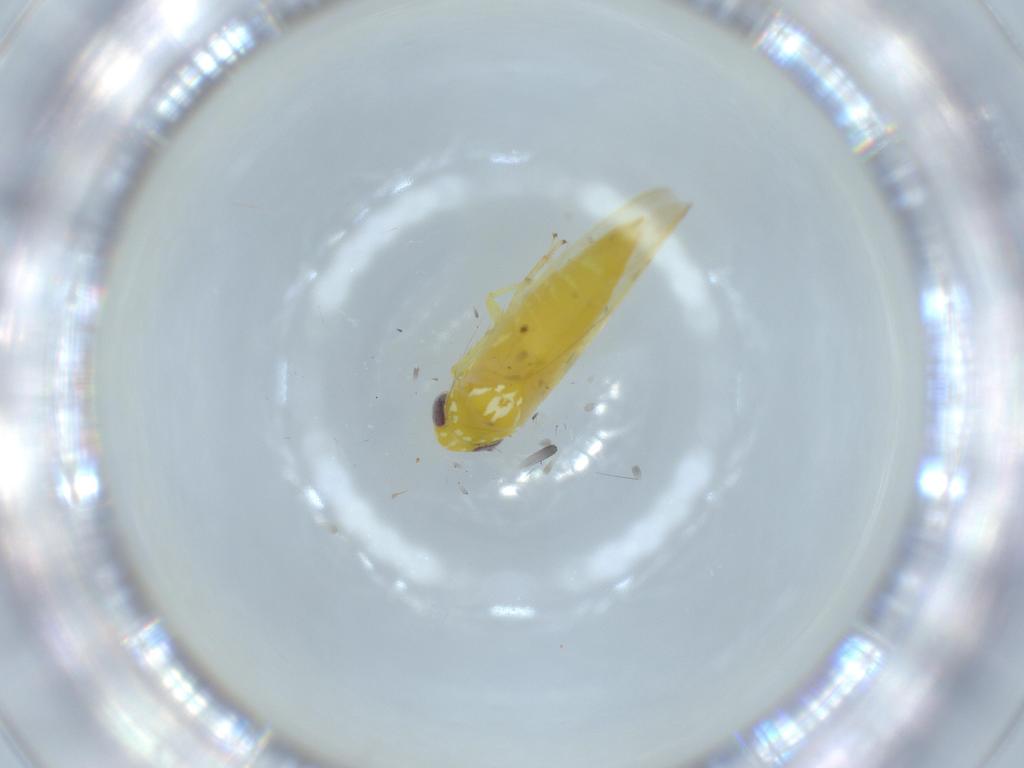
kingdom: Animalia
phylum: Arthropoda
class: Insecta
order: Hemiptera
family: Cicadellidae
